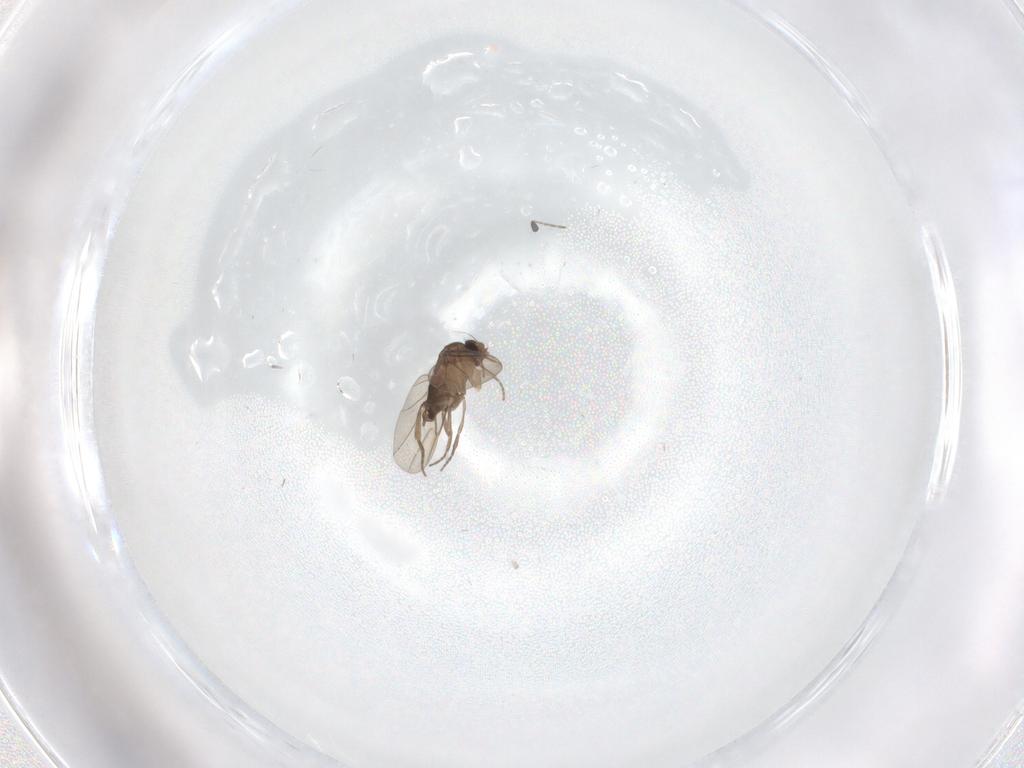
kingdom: Animalia
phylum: Arthropoda
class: Insecta
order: Diptera
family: Phoridae
